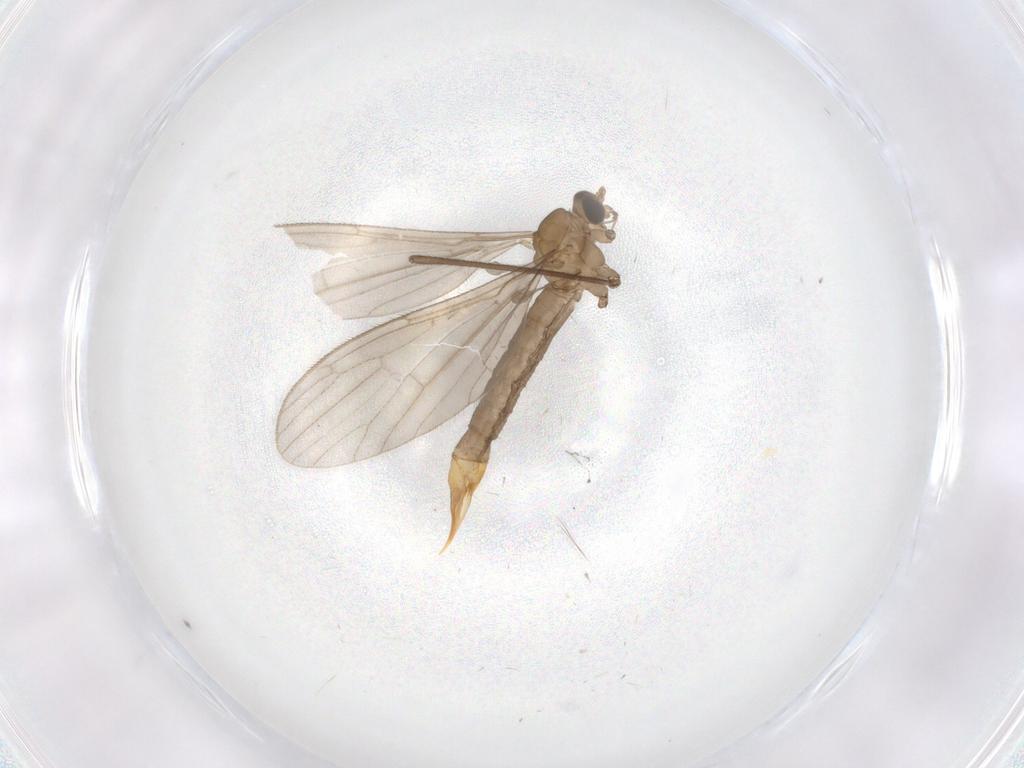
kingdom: Animalia
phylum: Arthropoda
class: Insecta
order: Diptera
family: Limoniidae
